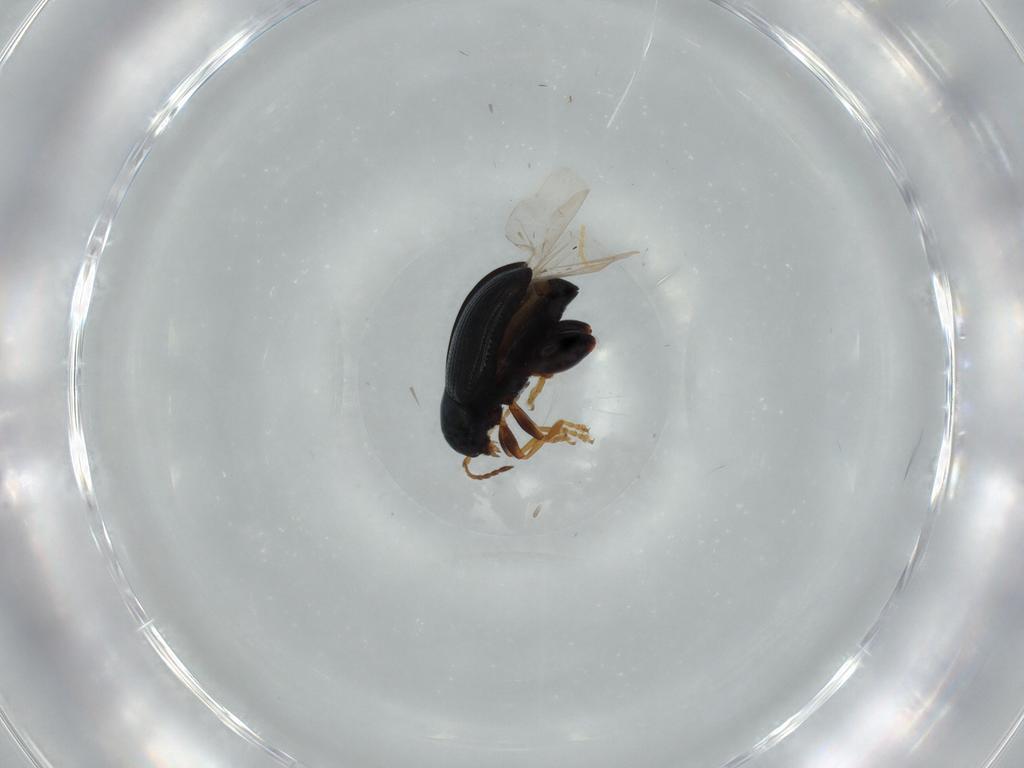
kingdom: Animalia
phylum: Arthropoda
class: Insecta
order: Coleoptera
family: Chrysomelidae
